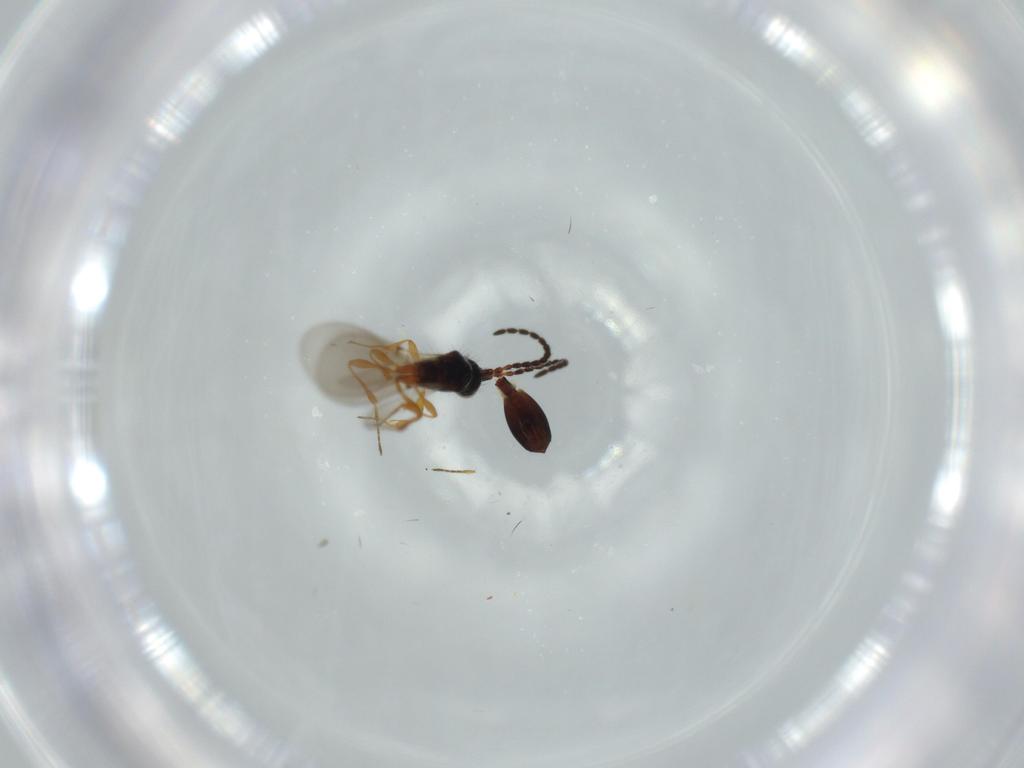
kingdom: Animalia
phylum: Arthropoda
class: Insecta
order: Hymenoptera
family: Diapriidae
